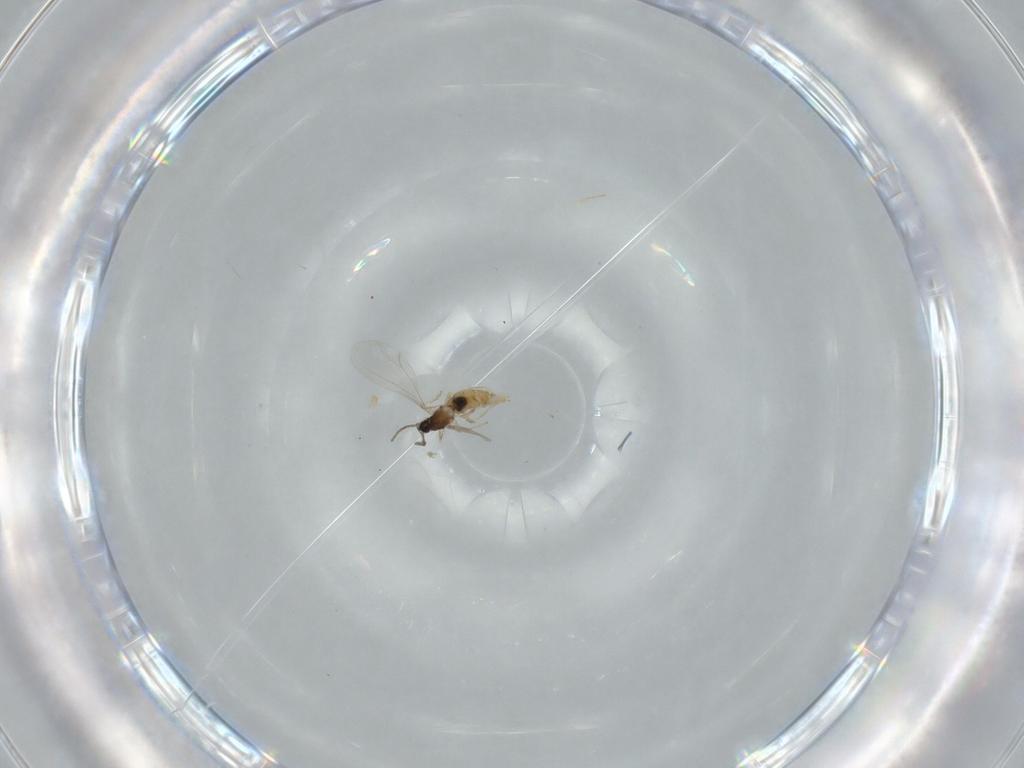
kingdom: Animalia
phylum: Arthropoda
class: Insecta
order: Diptera
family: Cecidomyiidae
